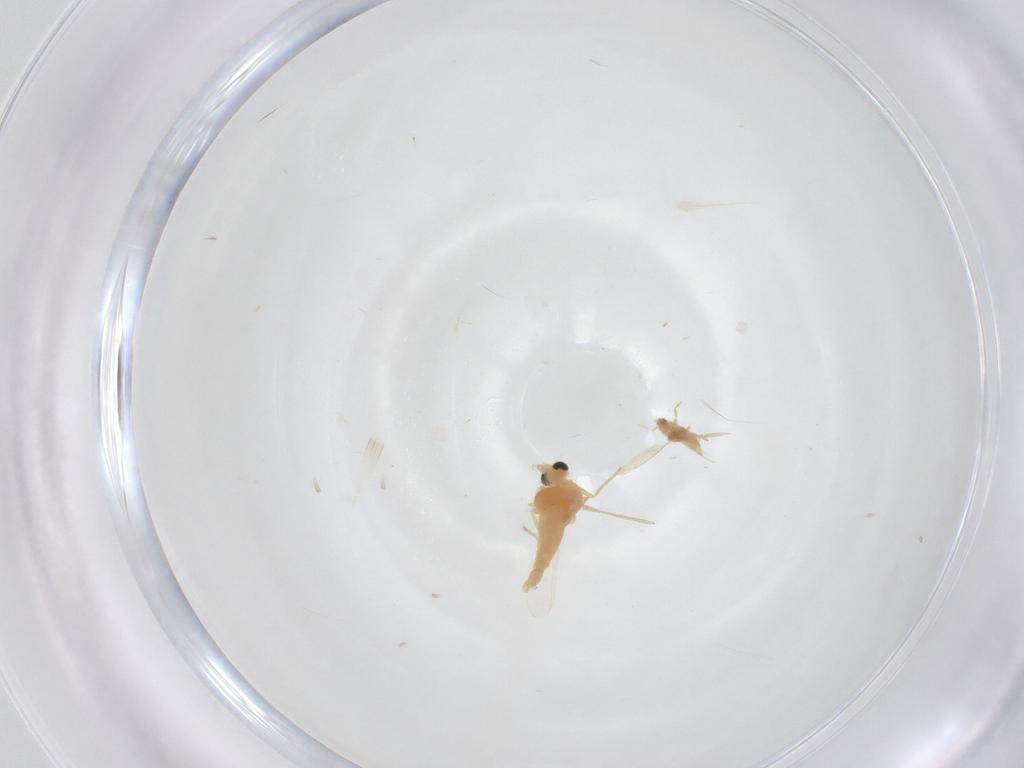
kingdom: Animalia
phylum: Arthropoda
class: Insecta
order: Diptera
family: Chironomidae
